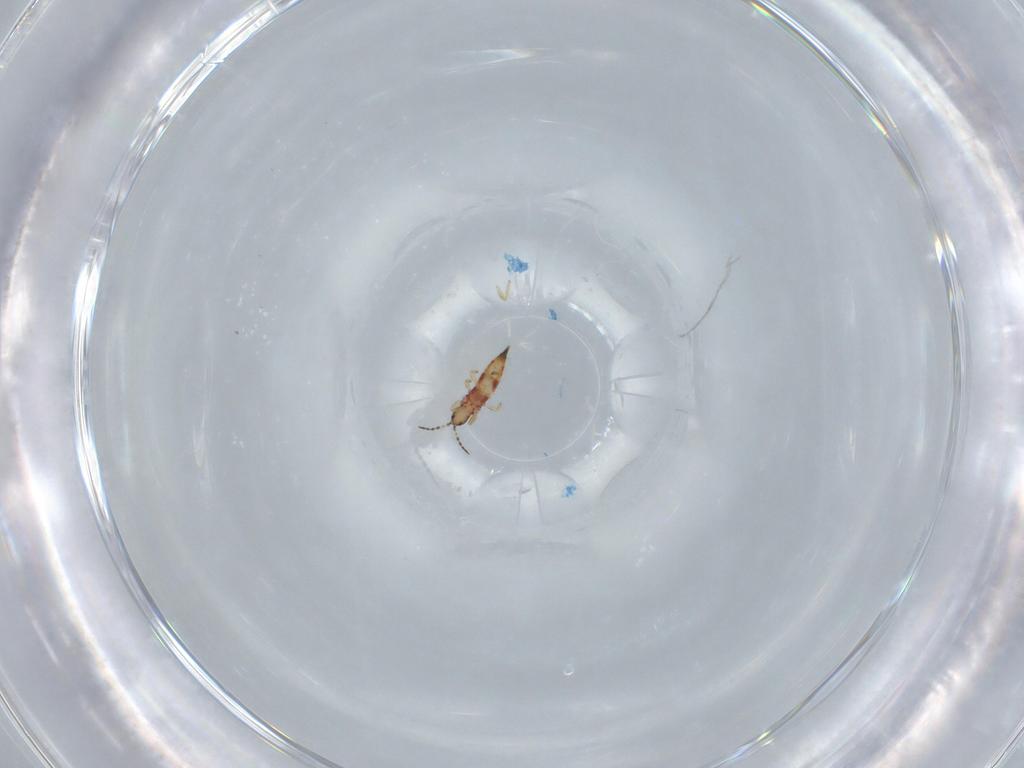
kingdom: Animalia
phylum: Arthropoda
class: Insecta
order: Thysanoptera
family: Phlaeothripidae
